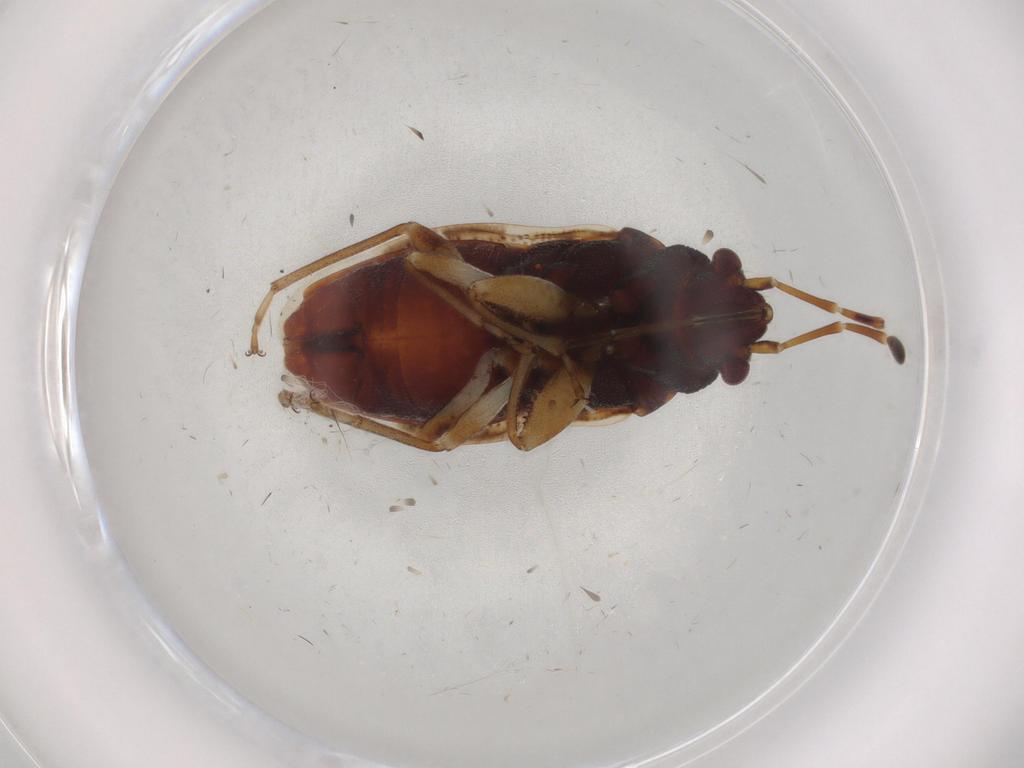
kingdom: Animalia
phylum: Arthropoda
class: Insecta
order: Hemiptera
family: Rhyparochromidae
